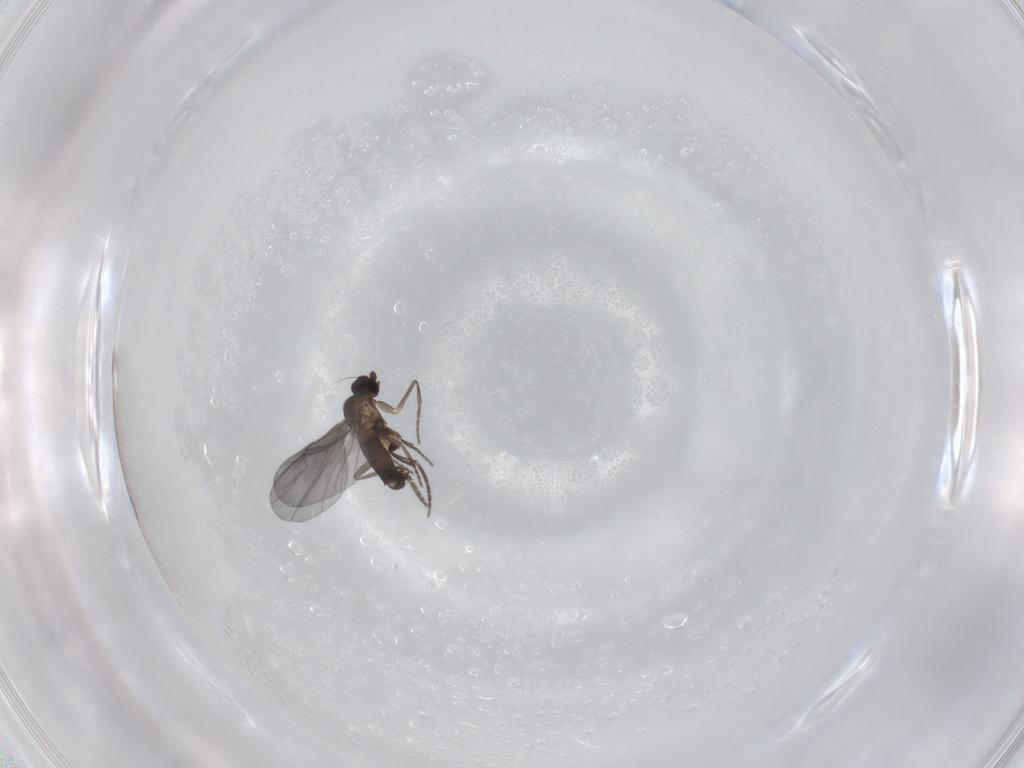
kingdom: Animalia
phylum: Arthropoda
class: Insecta
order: Diptera
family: Phoridae
